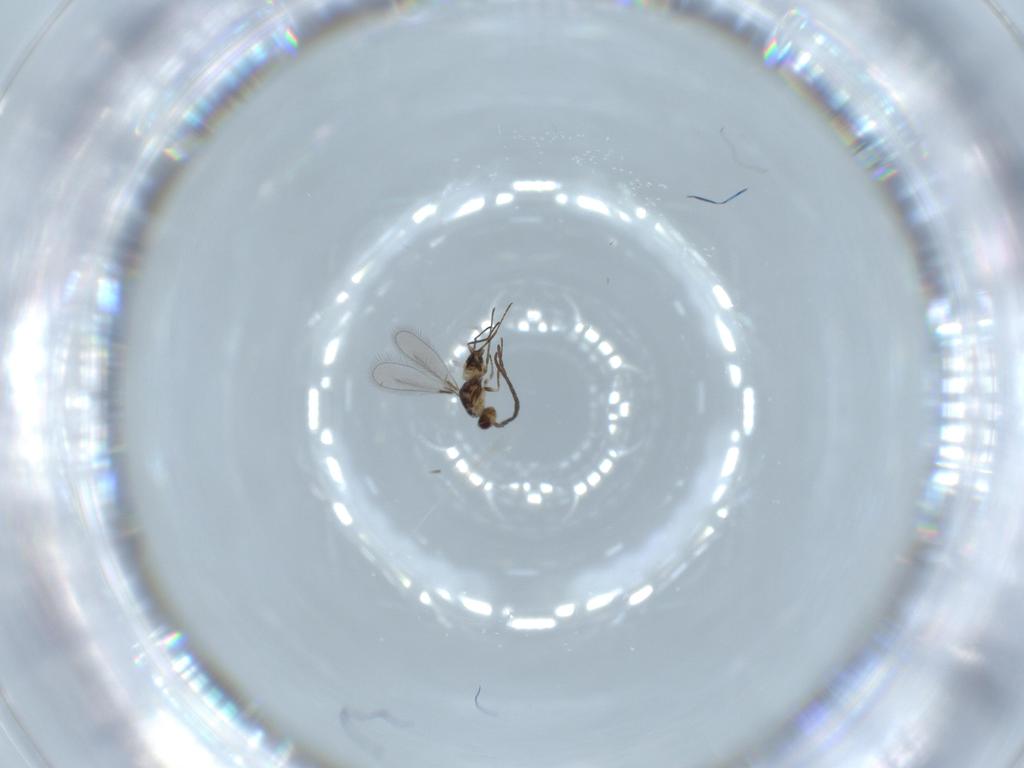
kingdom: Animalia
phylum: Arthropoda
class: Insecta
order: Hymenoptera
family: Mymaridae
